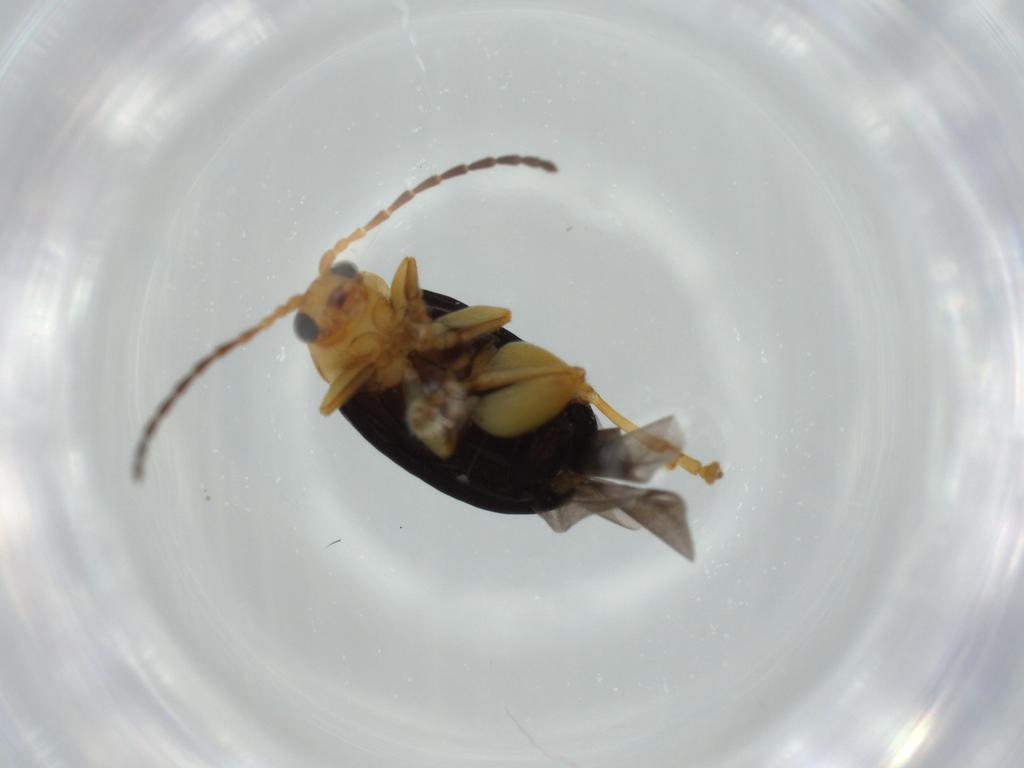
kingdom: Animalia
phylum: Arthropoda
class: Insecta
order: Coleoptera
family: Chrysomelidae
